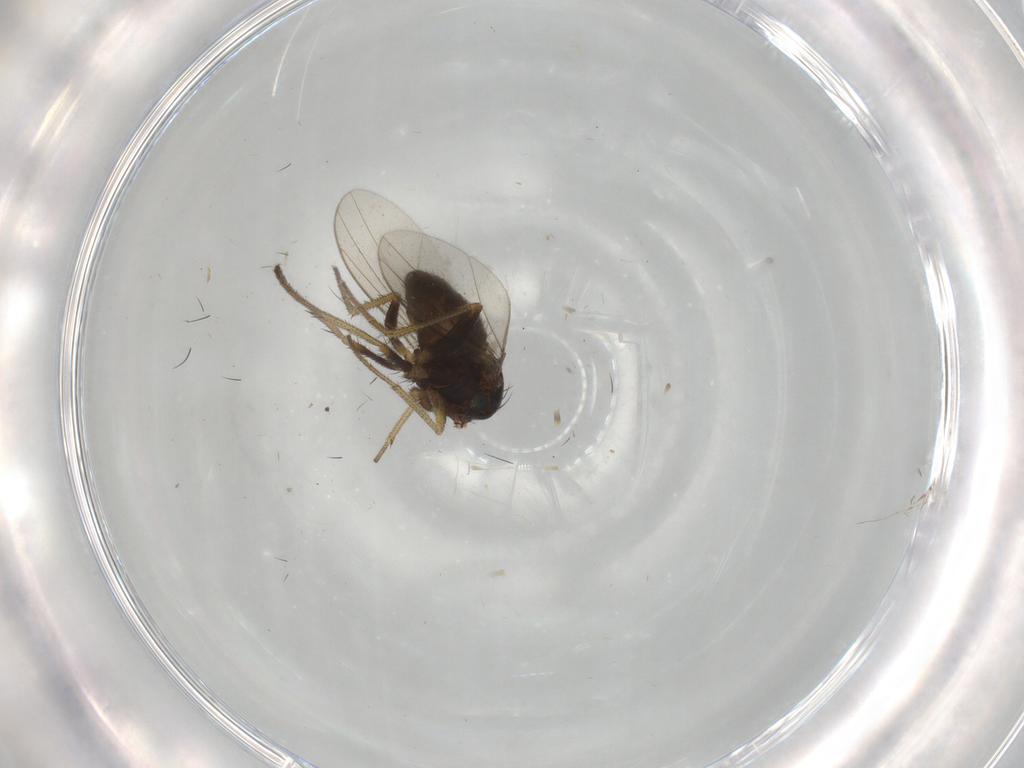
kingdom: Animalia
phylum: Arthropoda
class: Insecta
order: Diptera
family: Dolichopodidae
